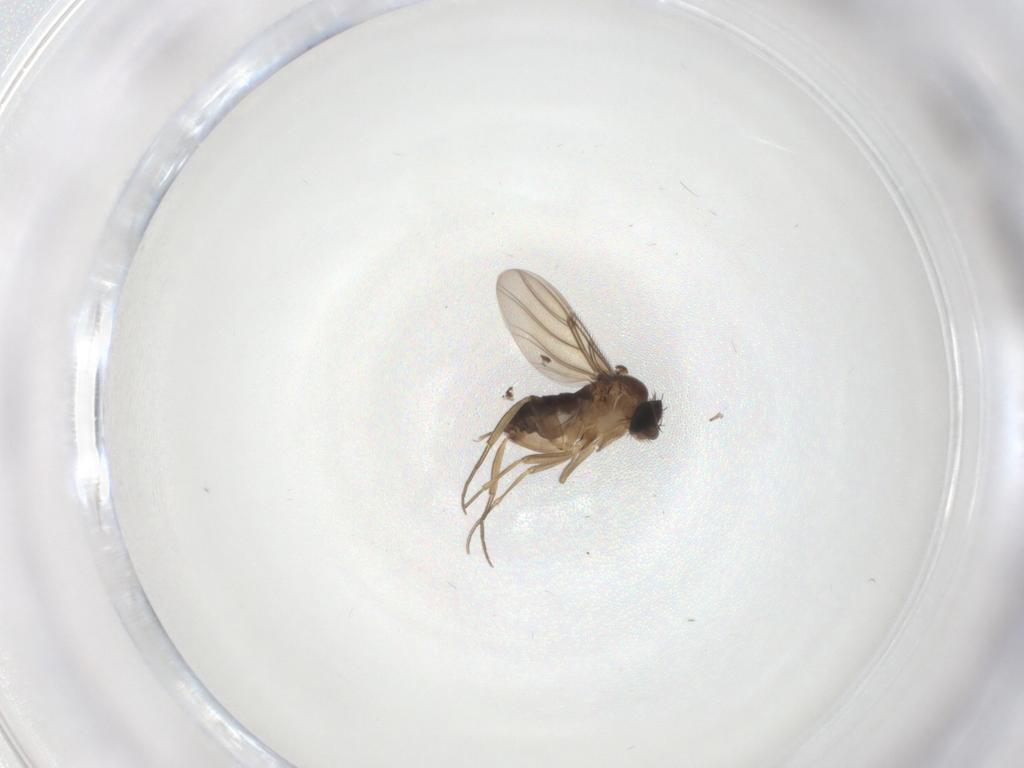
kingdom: Animalia
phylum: Arthropoda
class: Insecta
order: Diptera
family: Phoridae
